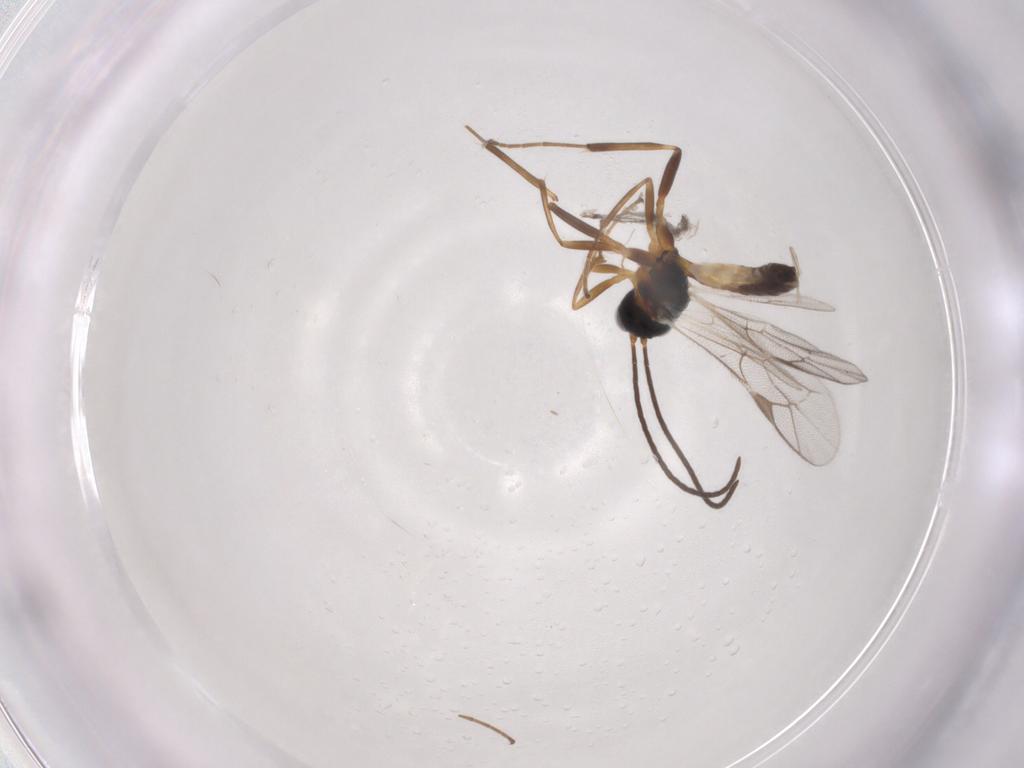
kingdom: Animalia
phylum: Arthropoda
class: Insecta
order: Hymenoptera
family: Ichneumonidae
